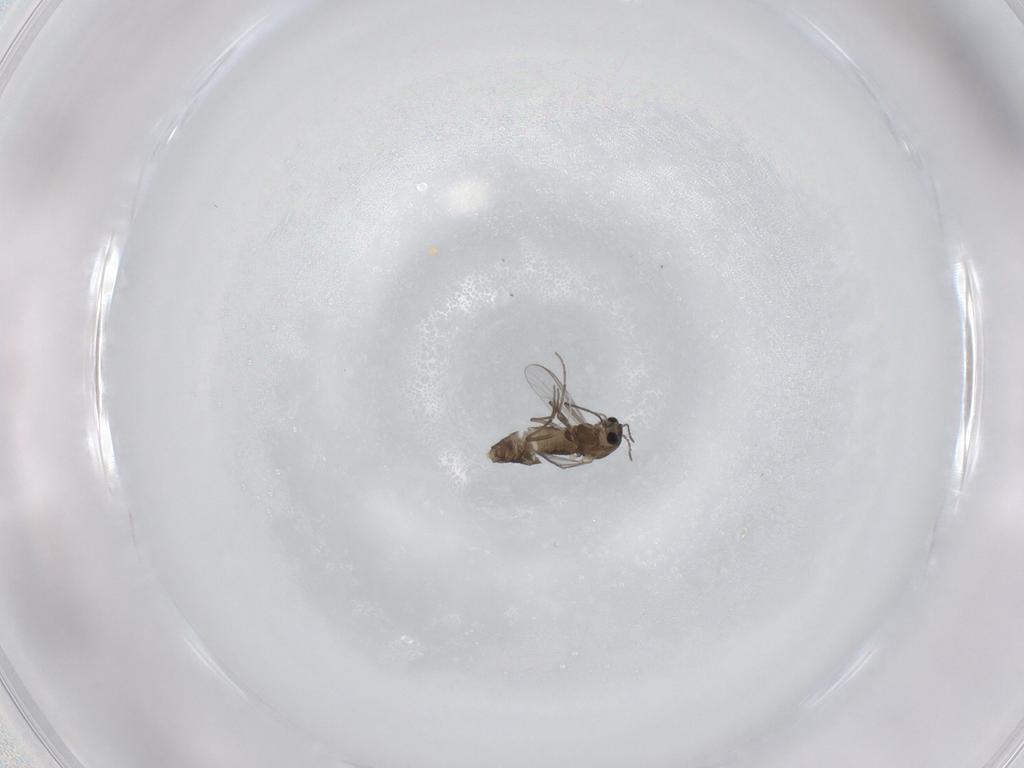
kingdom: Animalia
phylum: Arthropoda
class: Insecta
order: Diptera
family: Chironomidae
